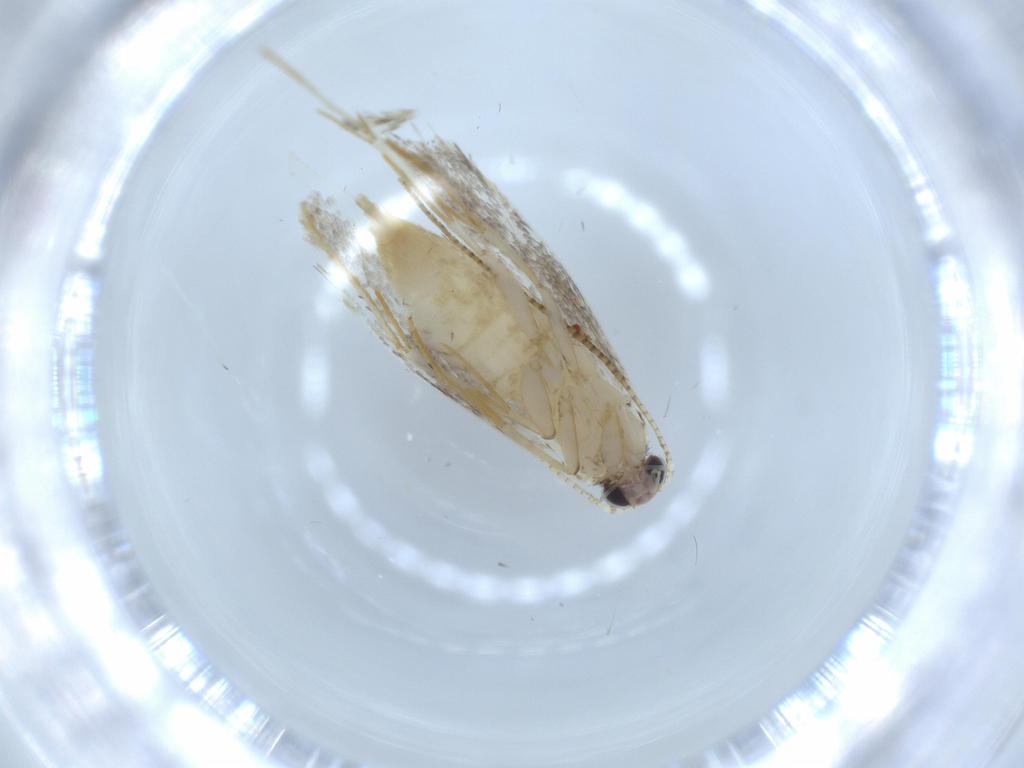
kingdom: Animalia
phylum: Arthropoda
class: Insecta
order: Lepidoptera
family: Tineidae
